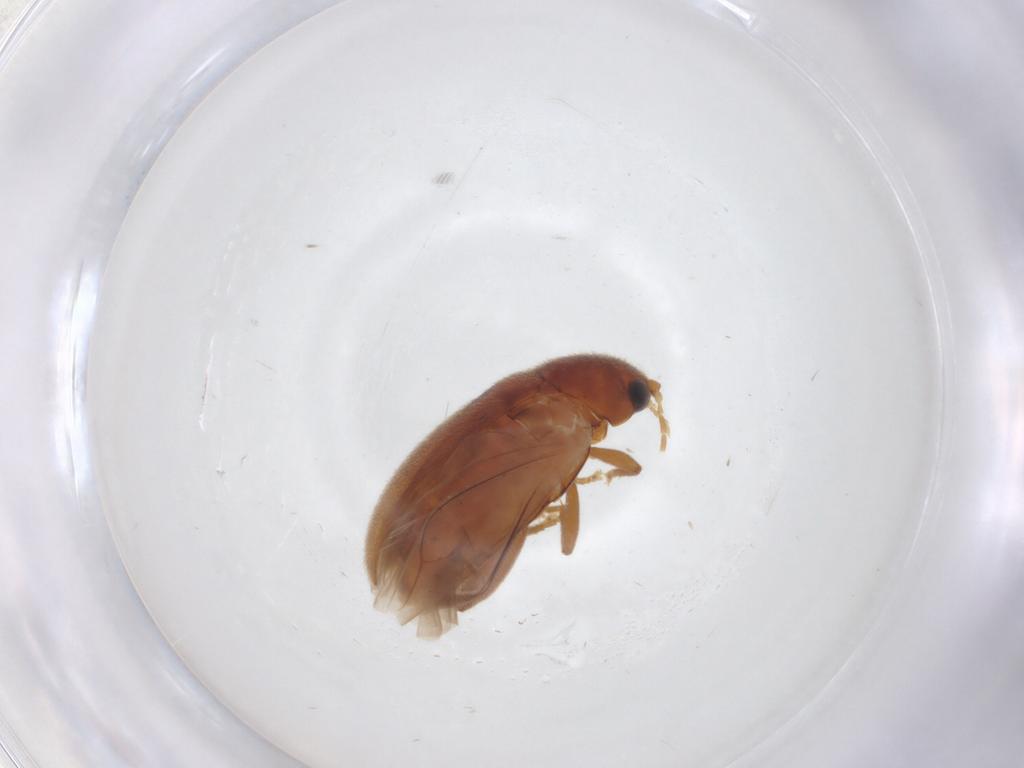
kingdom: Animalia
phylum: Arthropoda
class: Insecta
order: Coleoptera
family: Scirtidae
